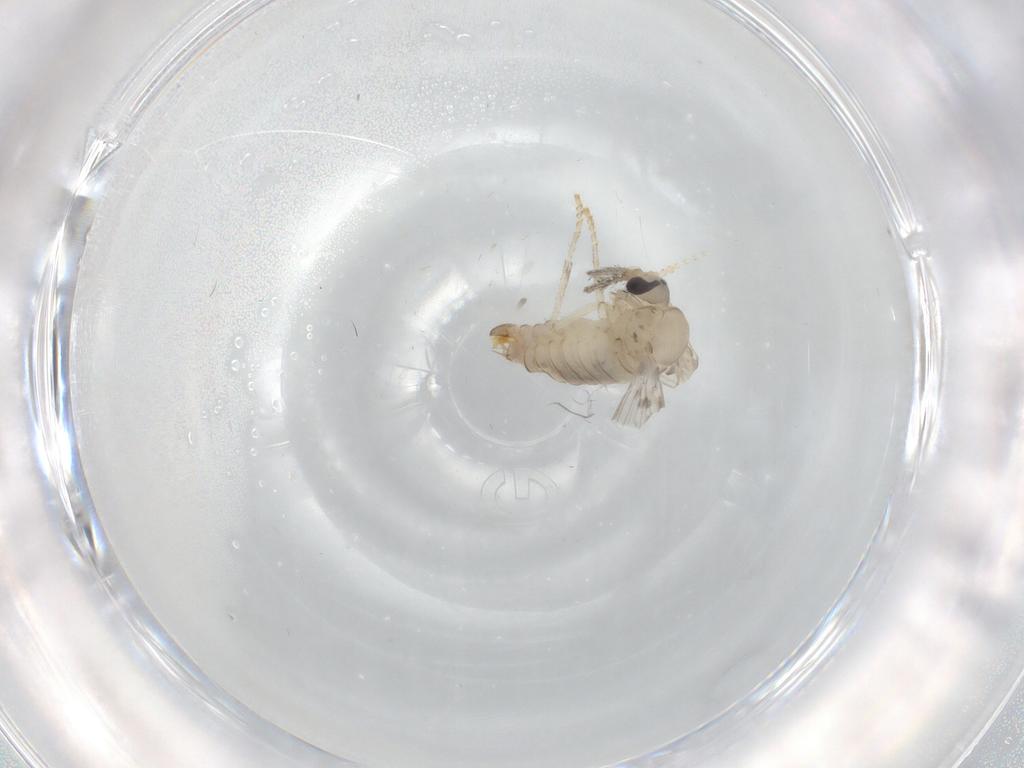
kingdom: Animalia
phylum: Arthropoda
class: Insecta
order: Diptera
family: Psychodidae
